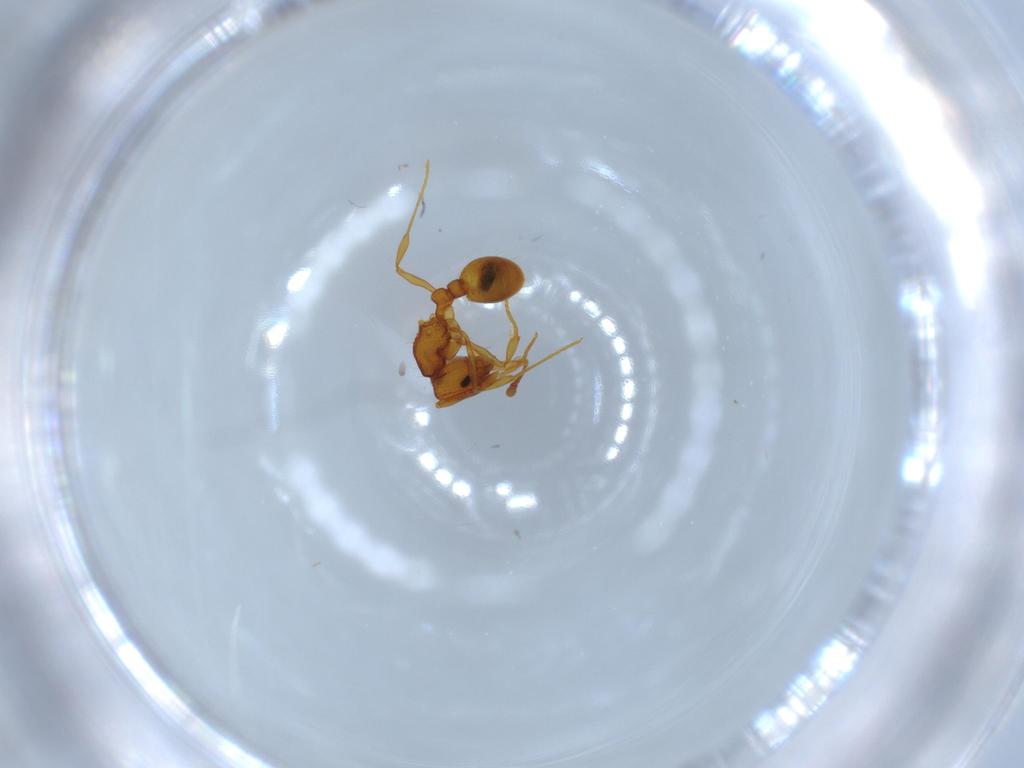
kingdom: Animalia
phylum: Arthropoda
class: Insecta
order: Hymenoptera
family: Formicidae
